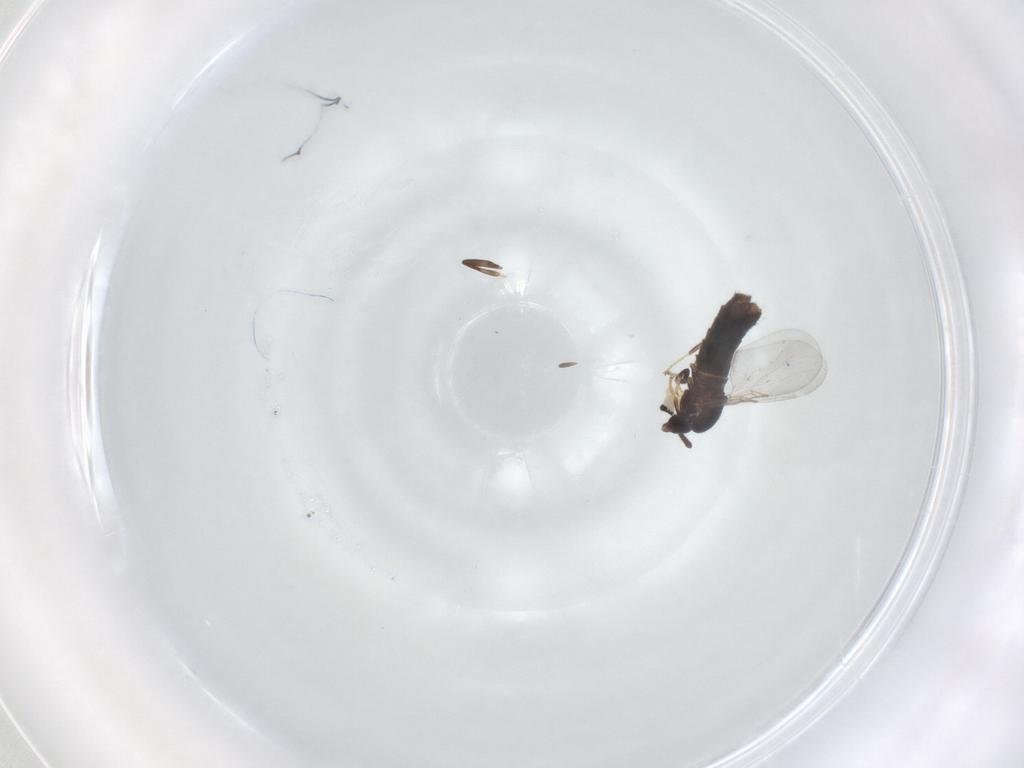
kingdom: Animalia
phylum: Arthropoda
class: Insecta
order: Diptera
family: Scatopsidae
